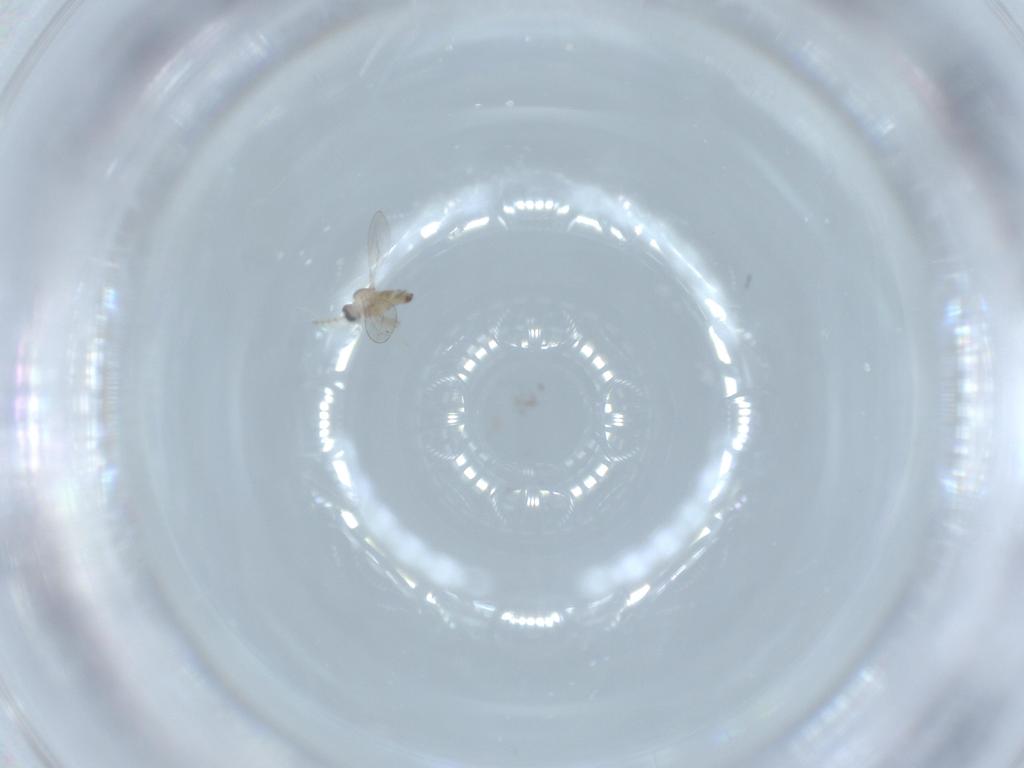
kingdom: Animalia
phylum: Arthropoda
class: Insecta
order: Diptera
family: Cecidomyiidae
